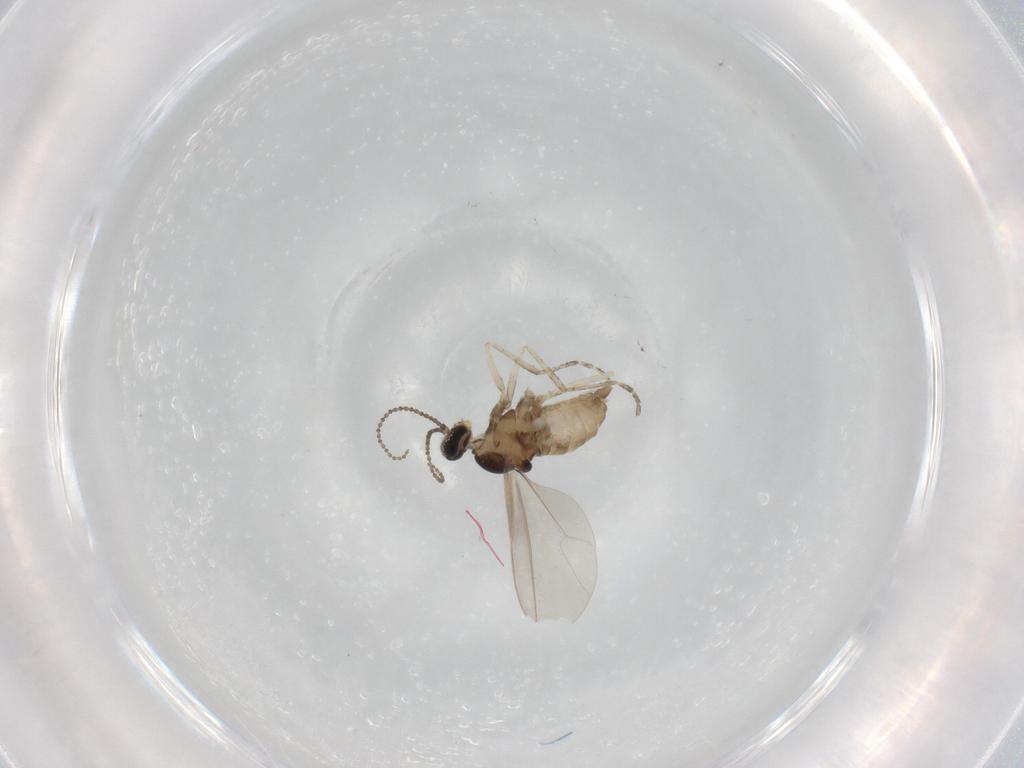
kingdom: Animalia
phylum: Arthropoda
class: Insecta
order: Diptera
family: Cecidomyiidae
